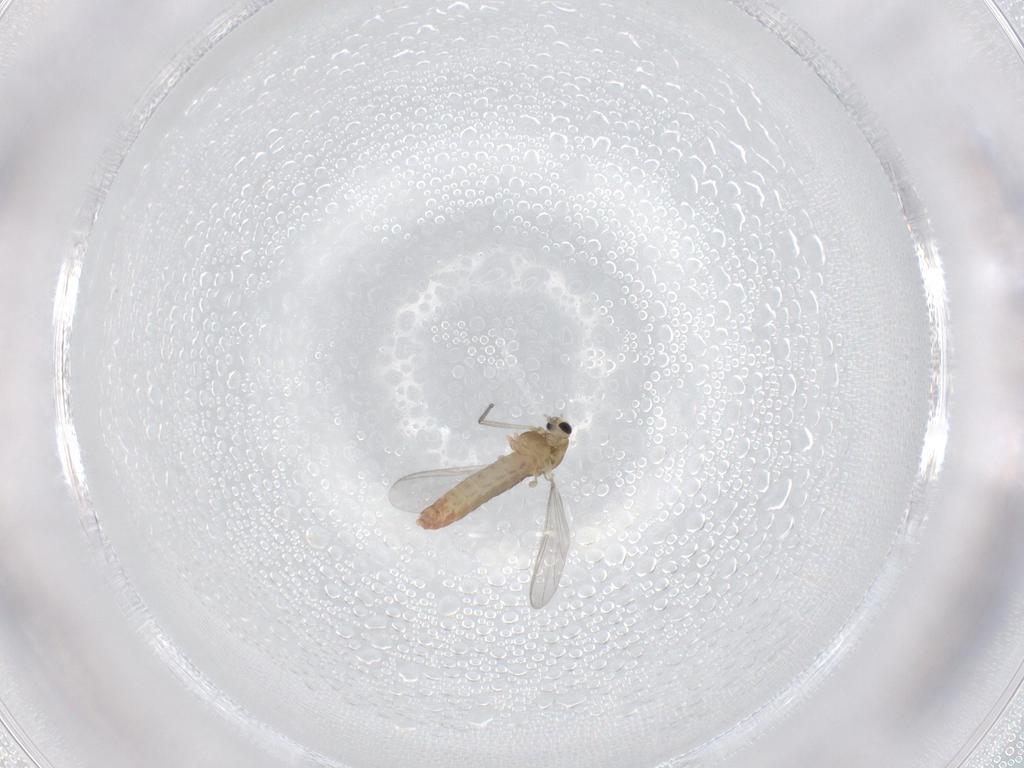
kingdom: Animalia
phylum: Arthropoda
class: Insecta
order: Diptera
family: Chironomidae
